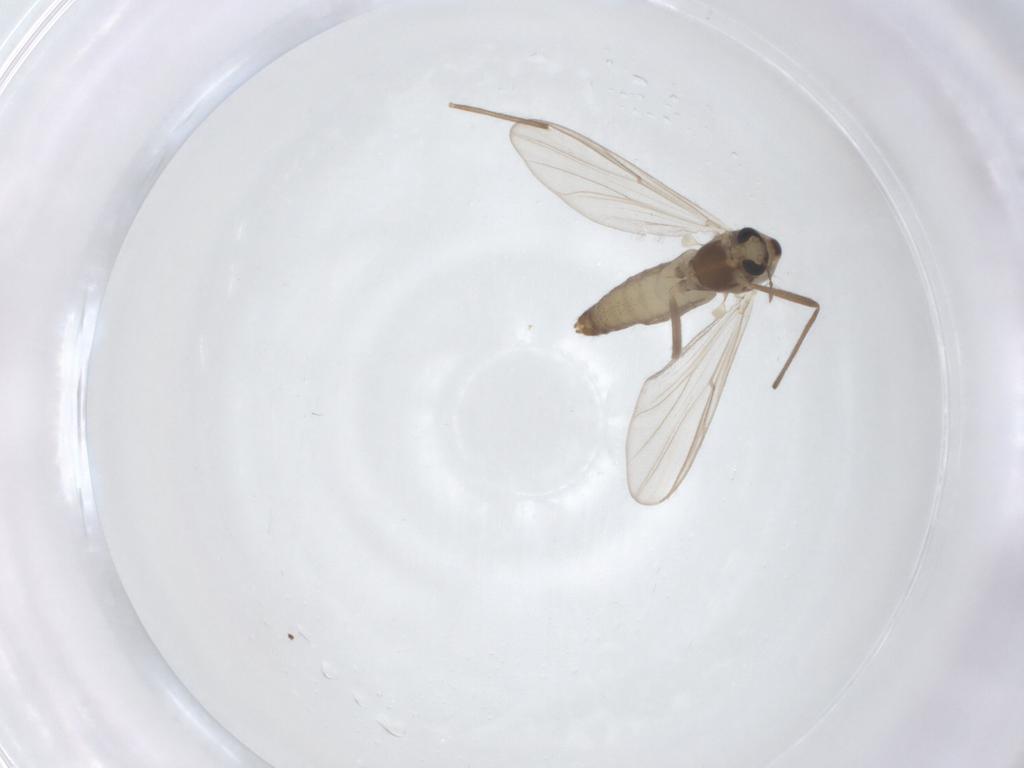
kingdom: Animalia
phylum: Arthropoda
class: Insecta
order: Diptera
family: Chironomidae
